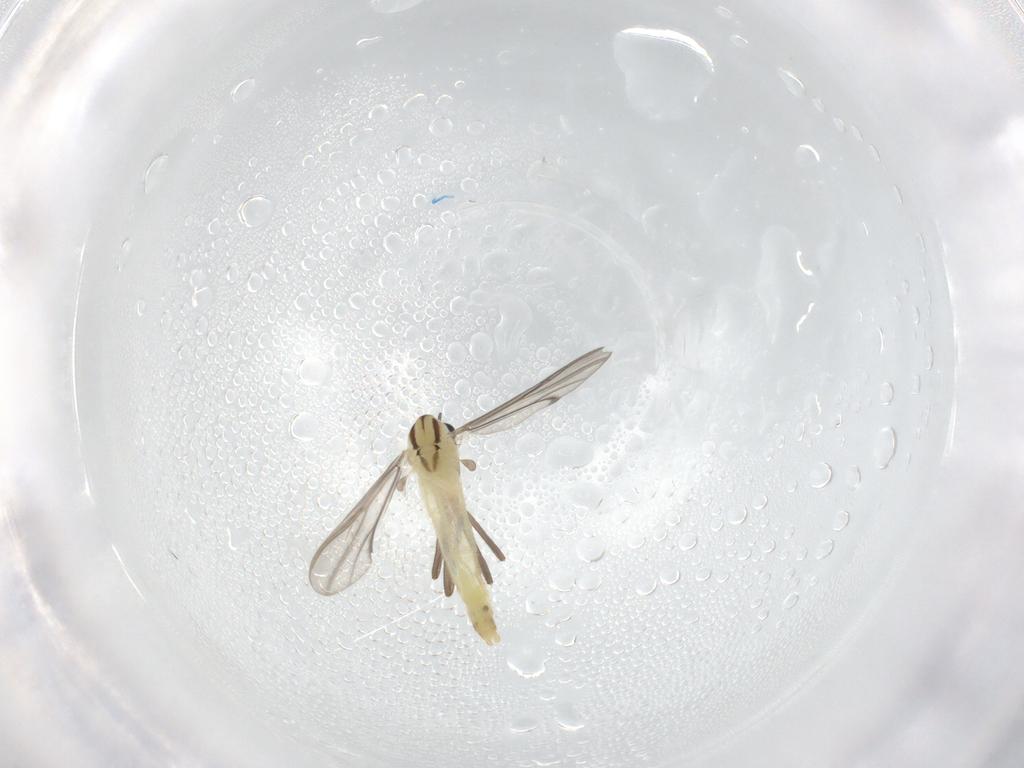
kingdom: Animalia
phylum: Arthropoda
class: Insecta
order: Diptera
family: Chironomidae
